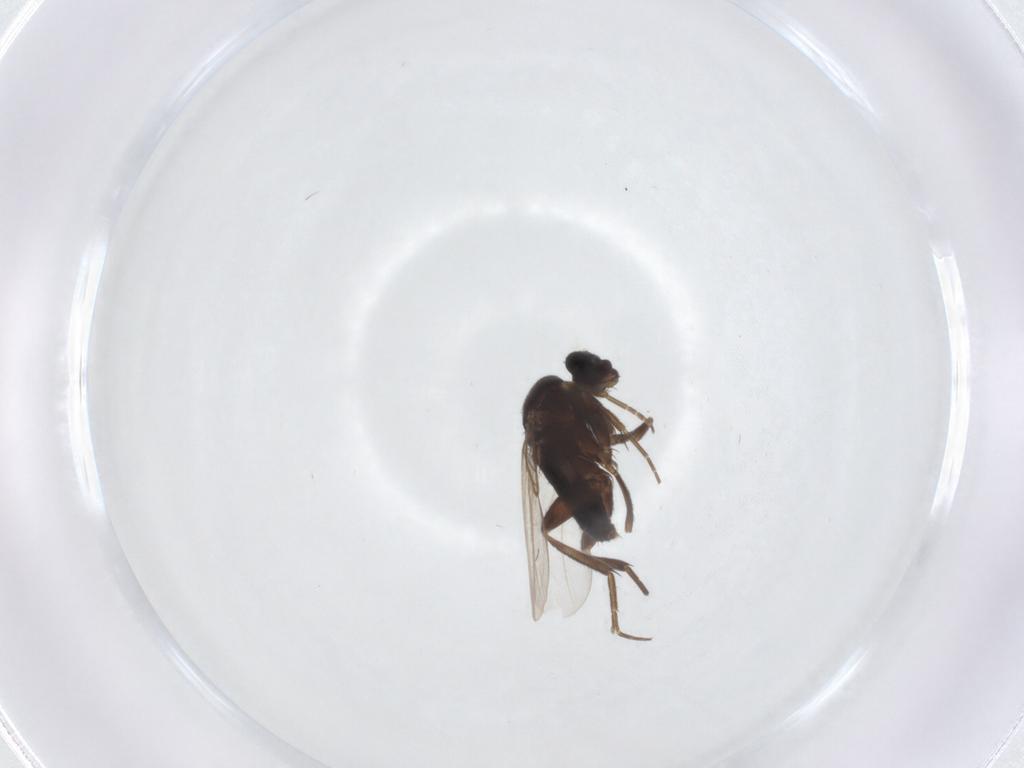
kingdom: Animalia
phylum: Arthropoda
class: Insecta
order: Diptera
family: Phoridae
